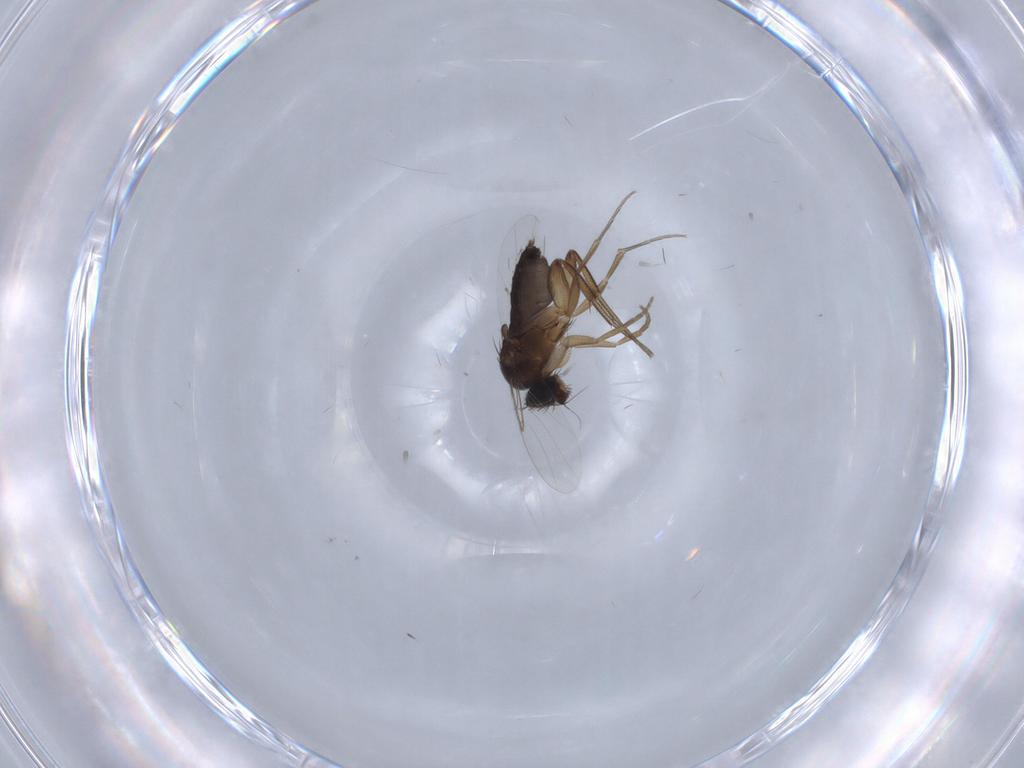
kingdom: Animalia
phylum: Arthropoda
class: Insecta
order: Diptera
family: Phoridae
